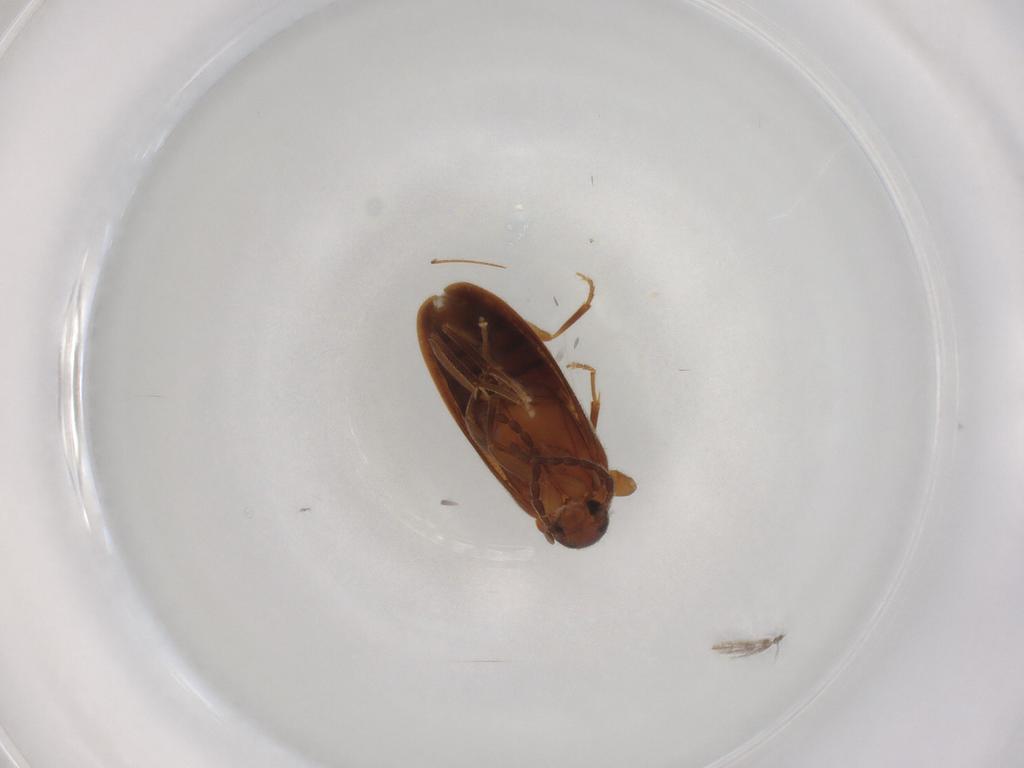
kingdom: Animalia
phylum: Arthropoda
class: Insecta
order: Coleoptera
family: Scraptiidae
